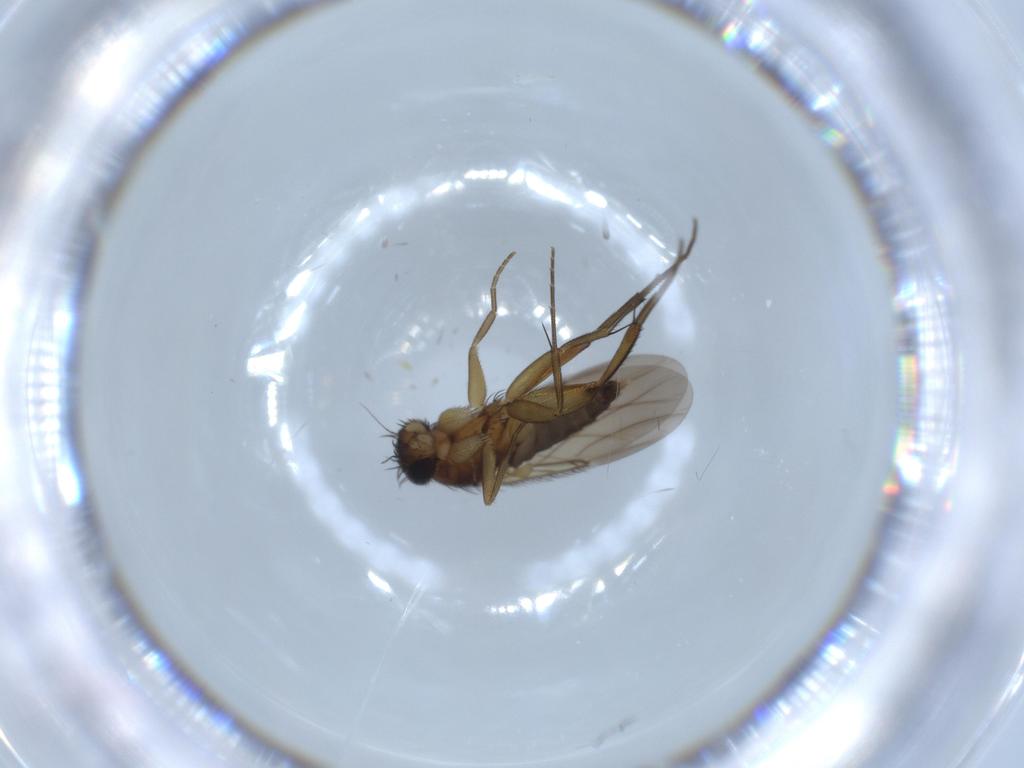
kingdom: Animalia
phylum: Arthropoda
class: Insecta
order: Diptera
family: Phoridae
